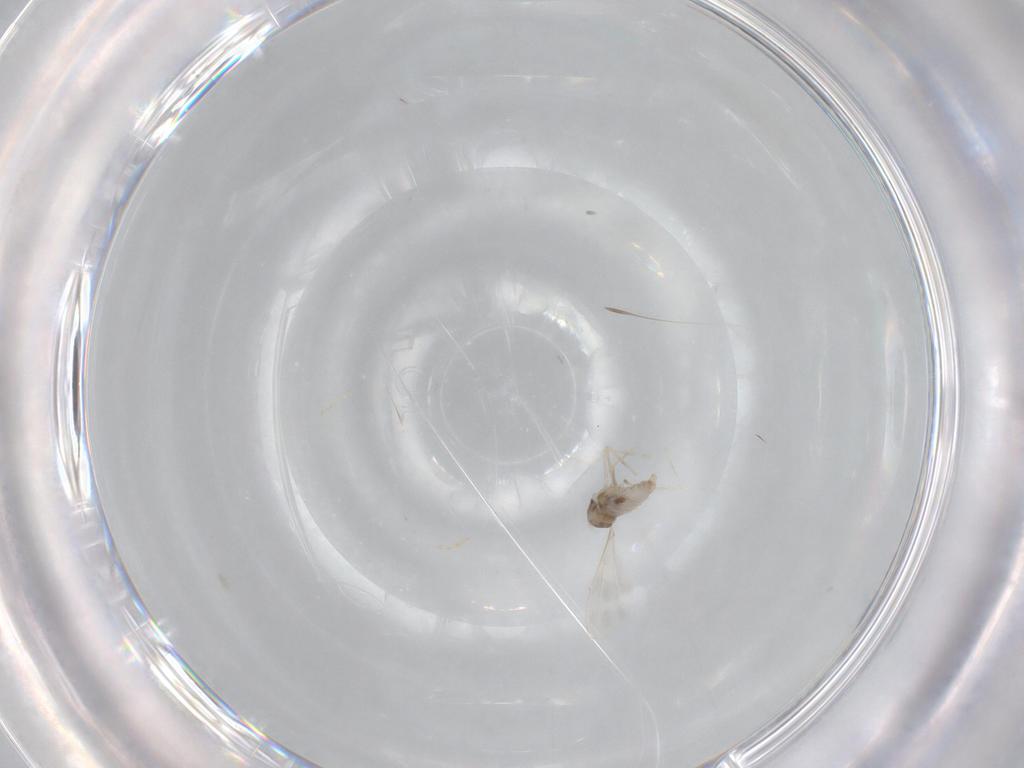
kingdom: Animalia
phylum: Arthropoda
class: Insecta
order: Diptera
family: Cecidomyiidae
